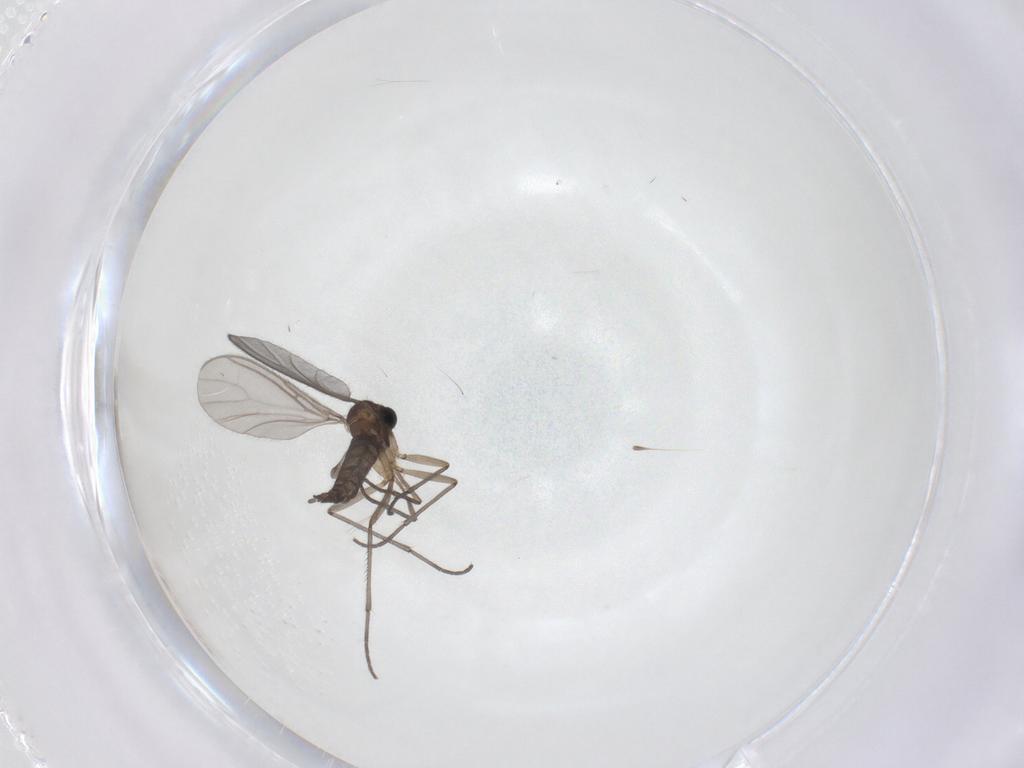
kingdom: Animalia
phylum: Arthropoda
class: Insecta
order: Diptera
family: Sciaridae
